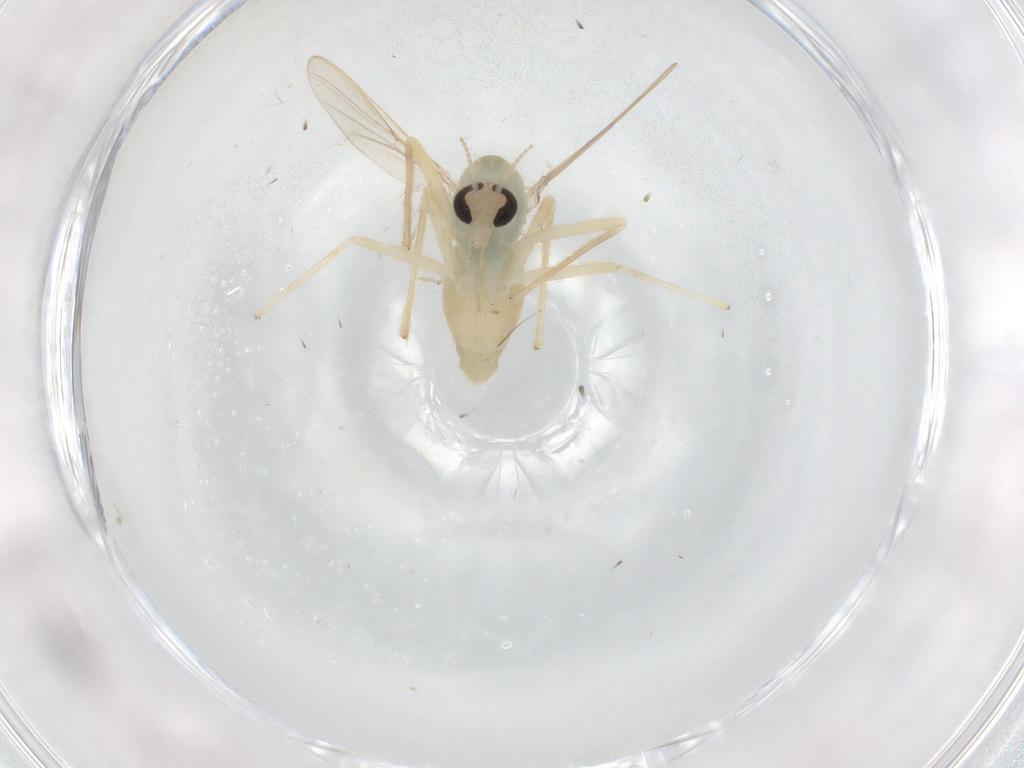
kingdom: Animalia
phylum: Arthropoda
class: Insecta
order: Diptera
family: Chironomidae
